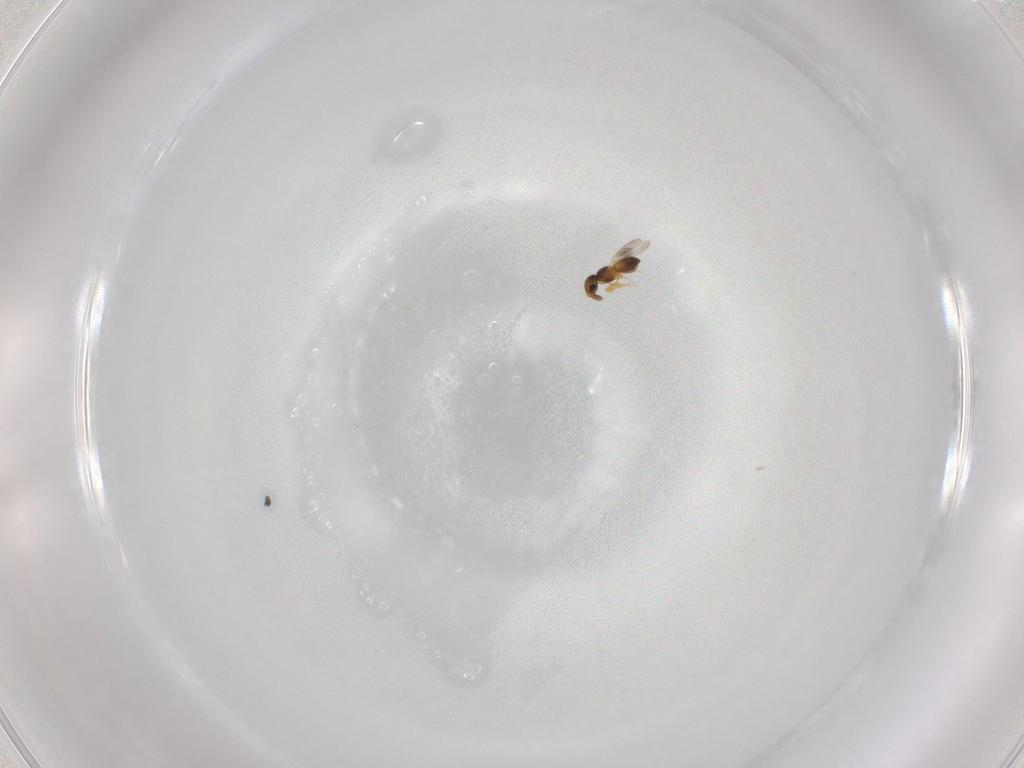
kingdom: Animalia
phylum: Arthropoda
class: Insecta
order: Hymenoptera
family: Platygastridae
